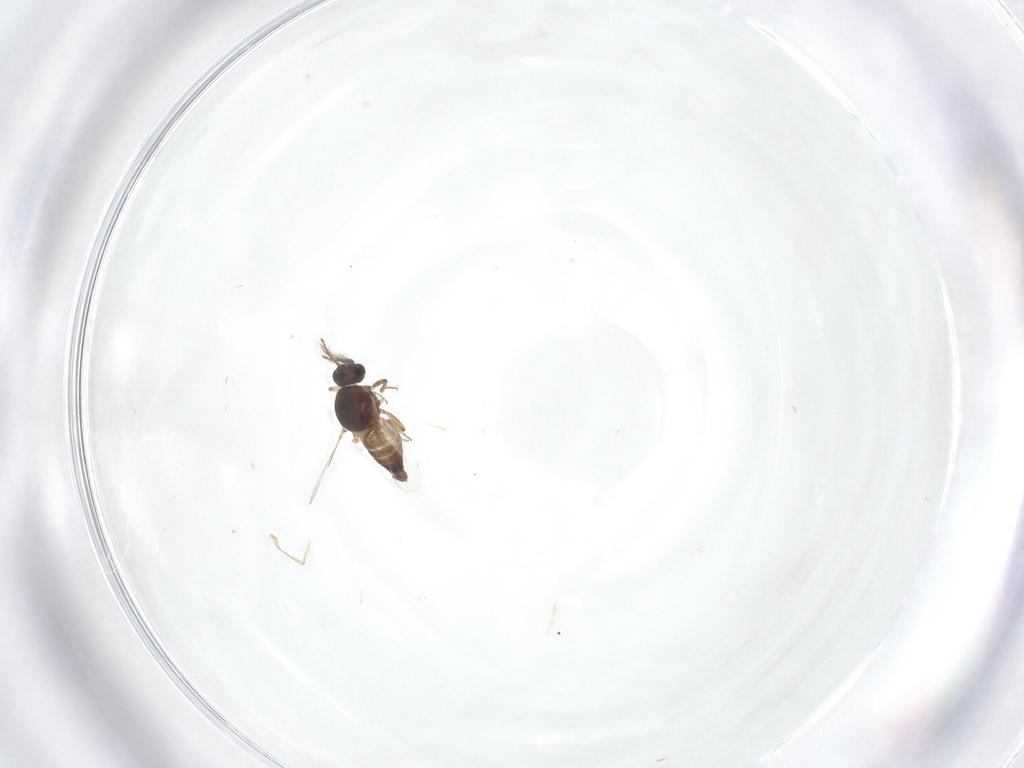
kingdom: Animalia
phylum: Arthropoda
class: Insecta
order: Diptera
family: Ceratopogonidae
